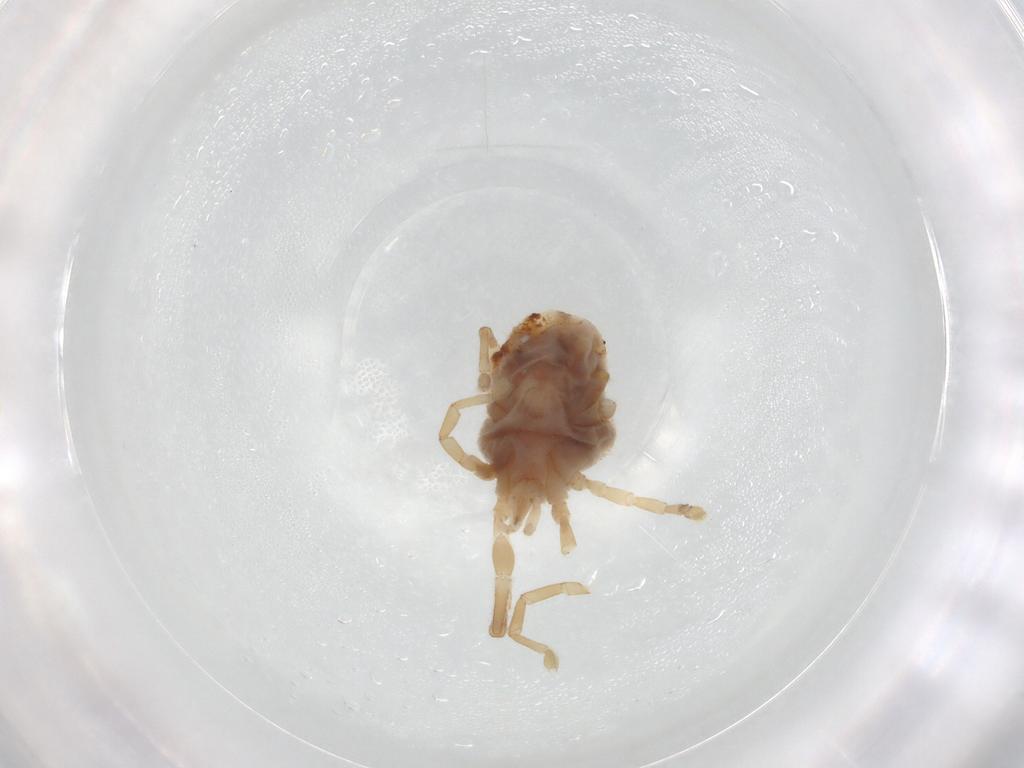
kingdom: Animalia
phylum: Arthropoda
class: Arachnida
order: Trombidiformes
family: Erythraeidae
